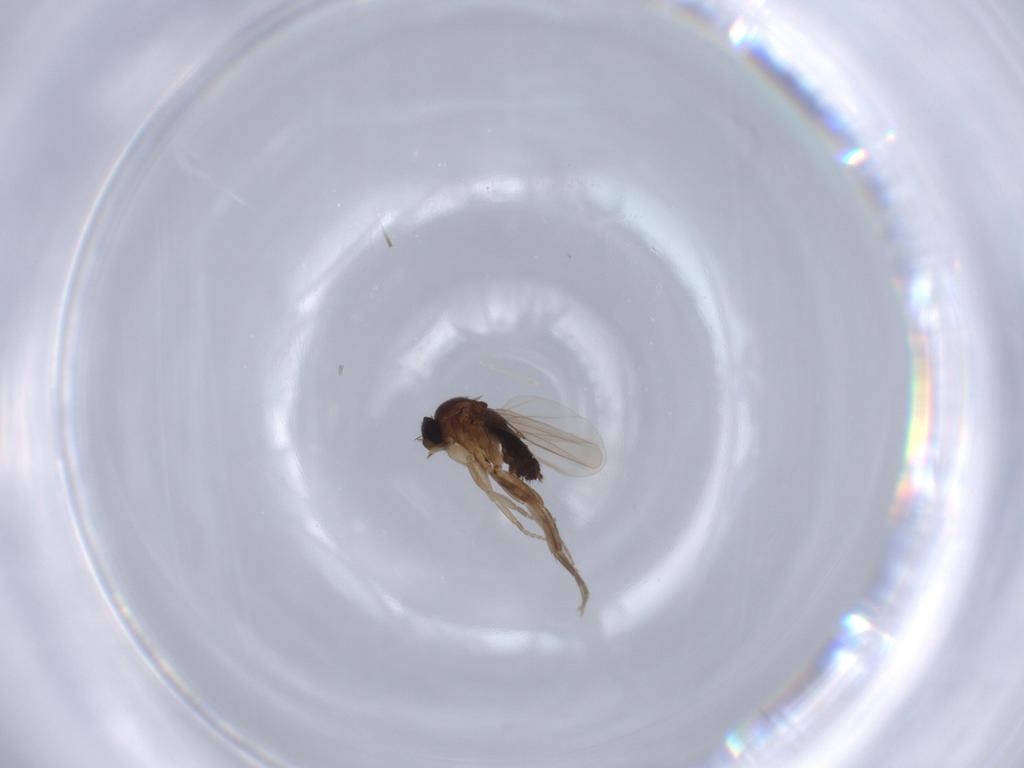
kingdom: Animalia
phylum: Arthropoda
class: Insecta
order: Diptera
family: Phoridae
